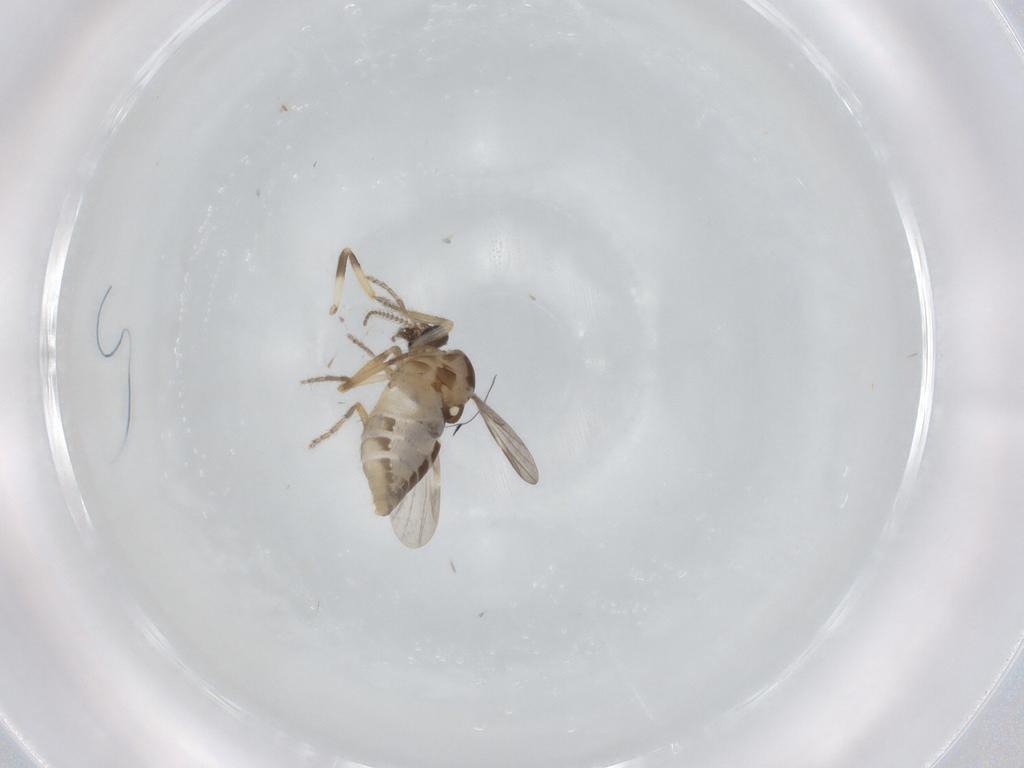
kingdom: Animalia
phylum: Arthropoda
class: Insecta
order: Diptera
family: Ceratopogonidae
